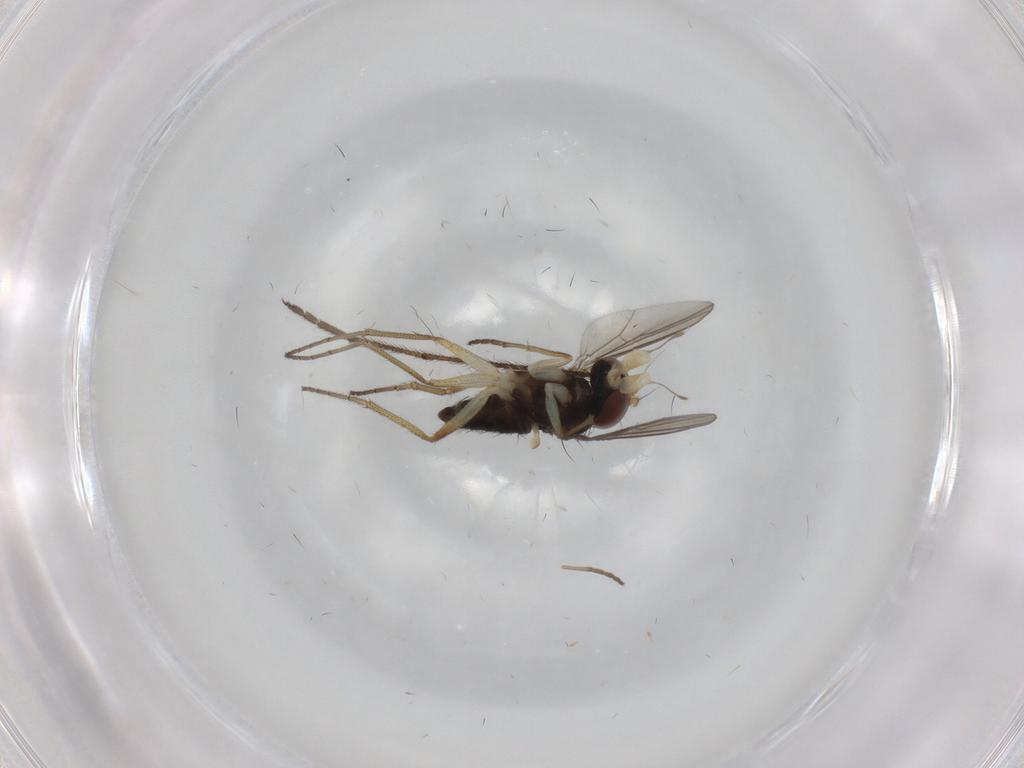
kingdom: Animalia
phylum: Arthropoda
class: Insecta
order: Diptera
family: Dolichopodidae
